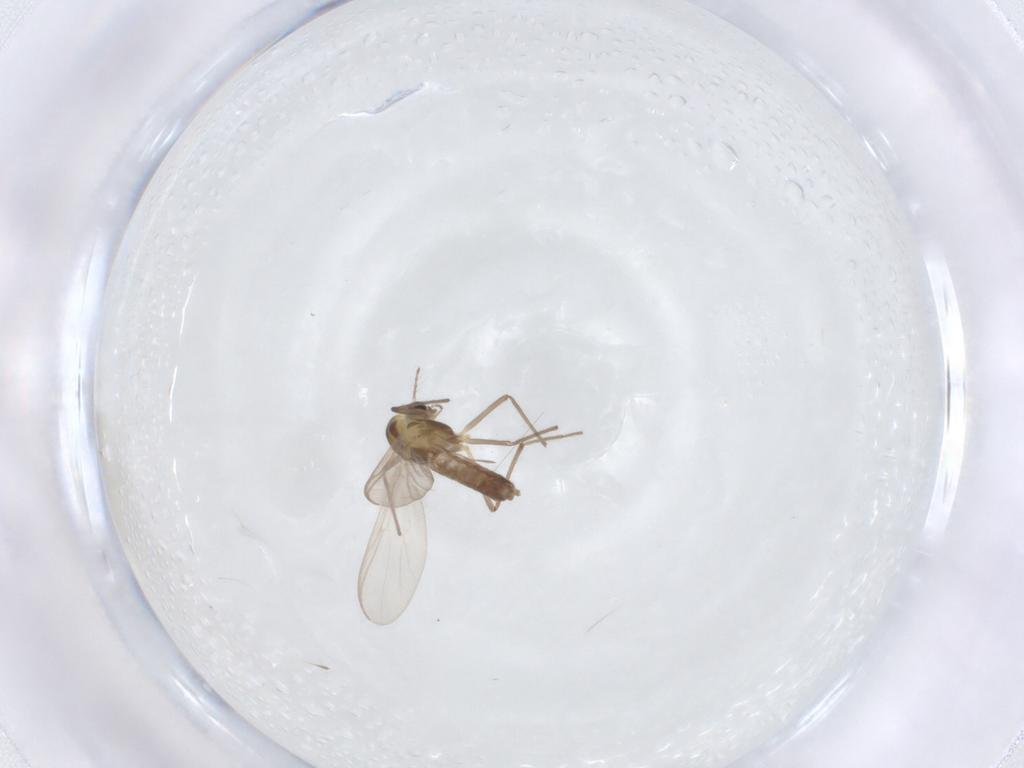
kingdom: Animalia
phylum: Arthropoda
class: Insecta
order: Diptera
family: Chironomidae
